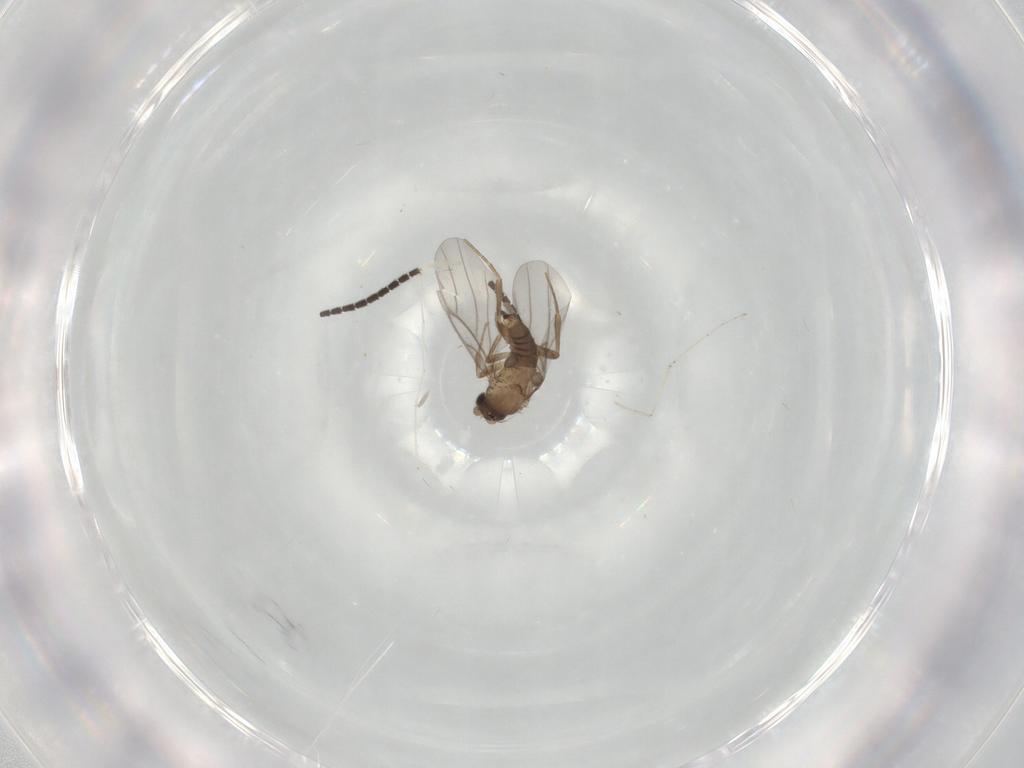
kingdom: Animalia
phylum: Arthropoda
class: Insecta
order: Diptera
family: Sciaridae
